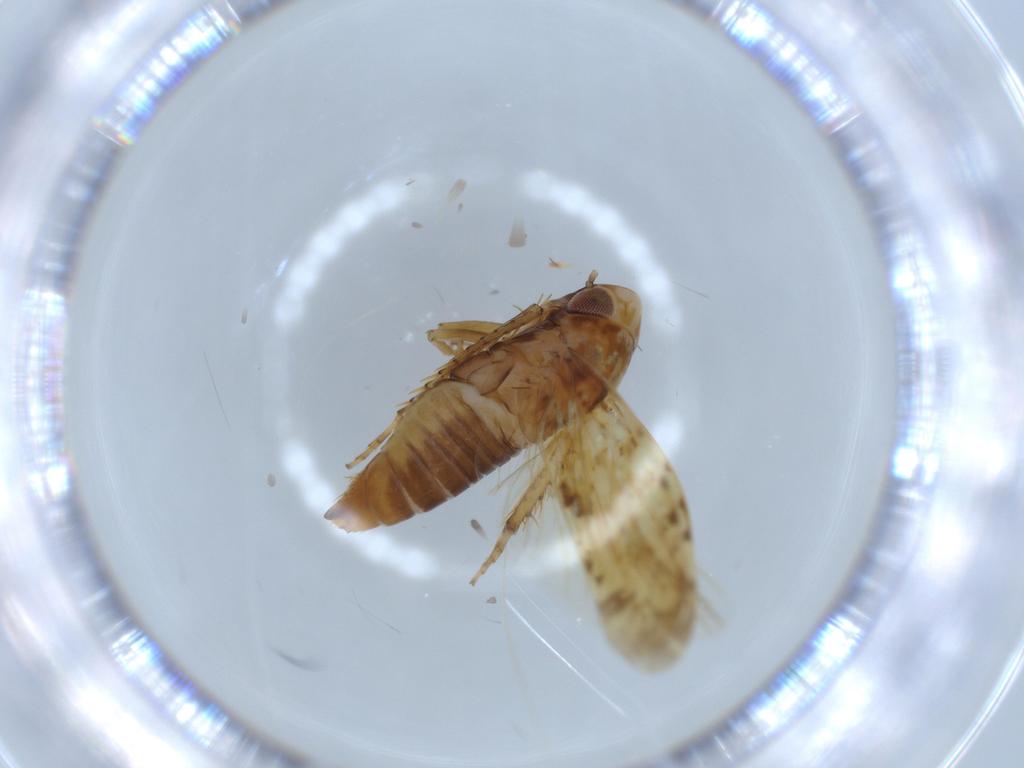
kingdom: Animalia
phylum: Arthropoda
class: Insecta
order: Hemiptera
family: Cicadellidae
